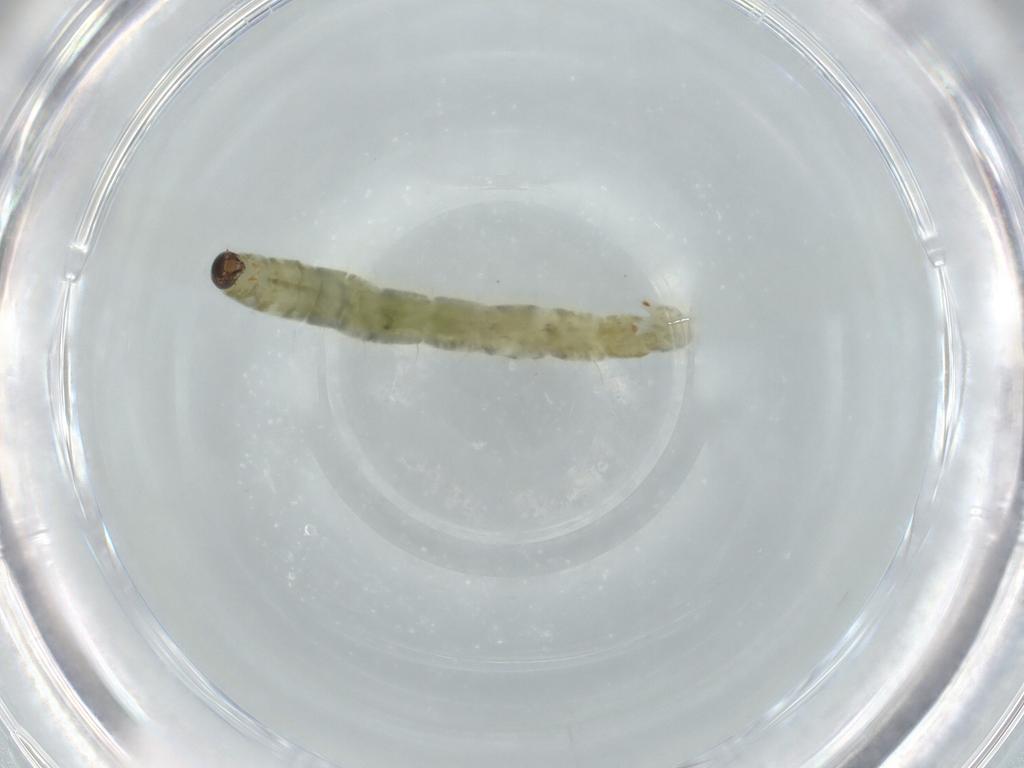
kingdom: Animalia
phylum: Arthropoda
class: Insecta
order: Diptera
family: Chironomidae
